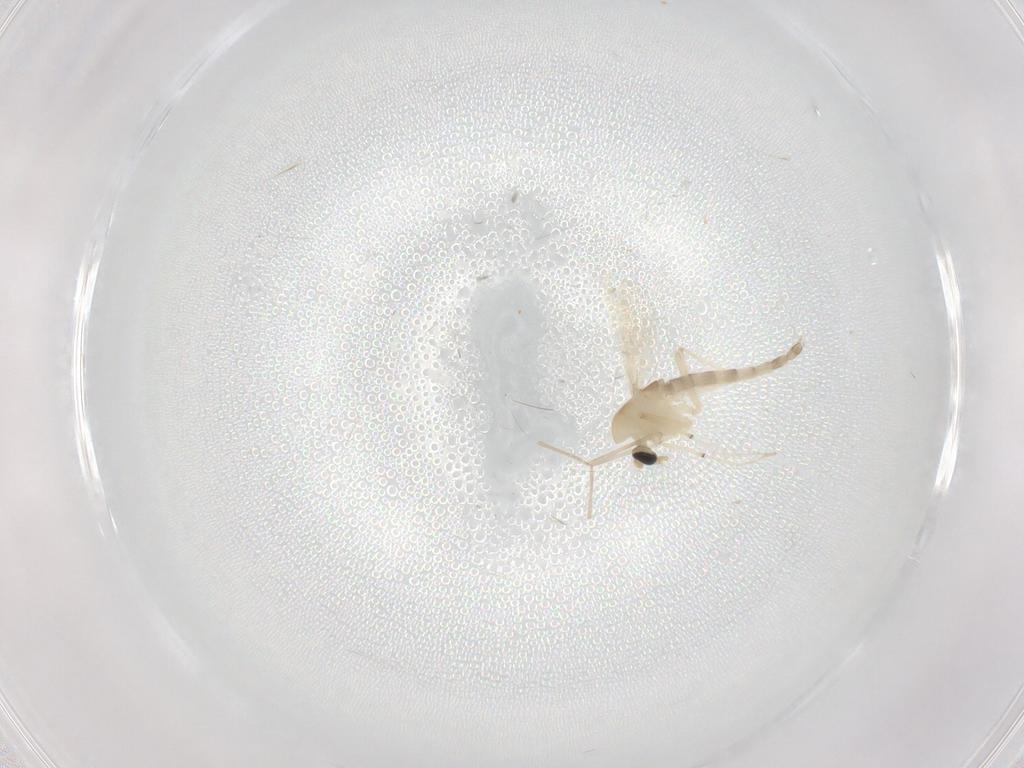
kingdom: Animalia
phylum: Arthropoda
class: Insecta
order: Diptera
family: Chironomidae
